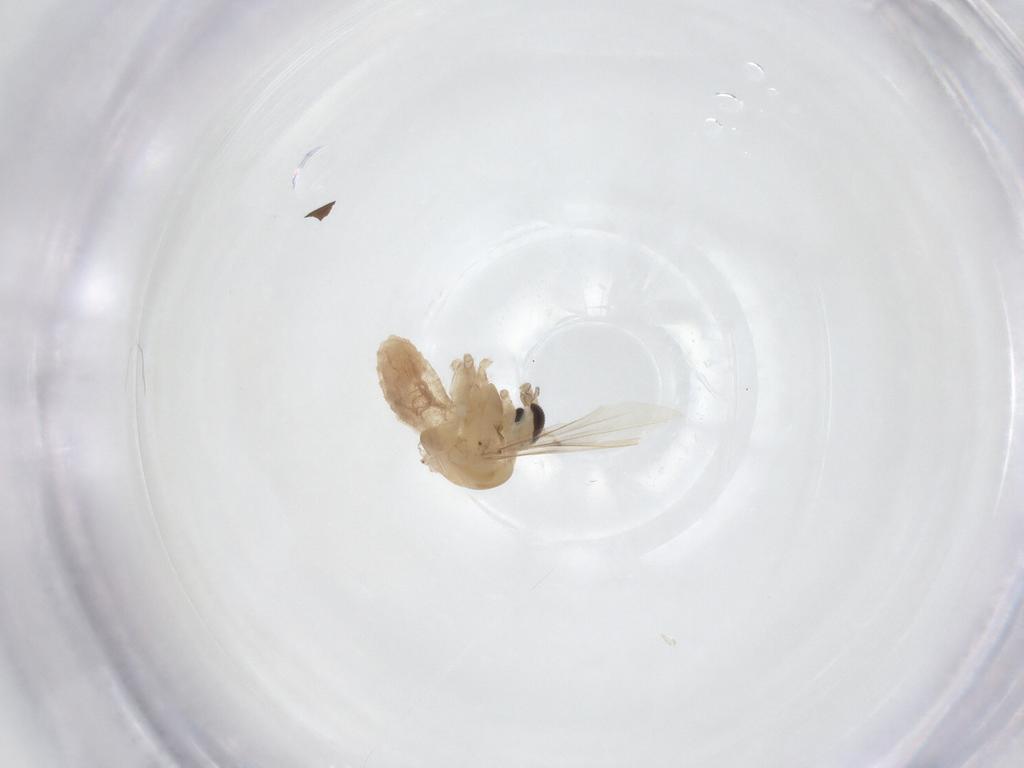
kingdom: Animalia
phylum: Arthropoda
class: Insecta
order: Diptera
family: Chironomidae
